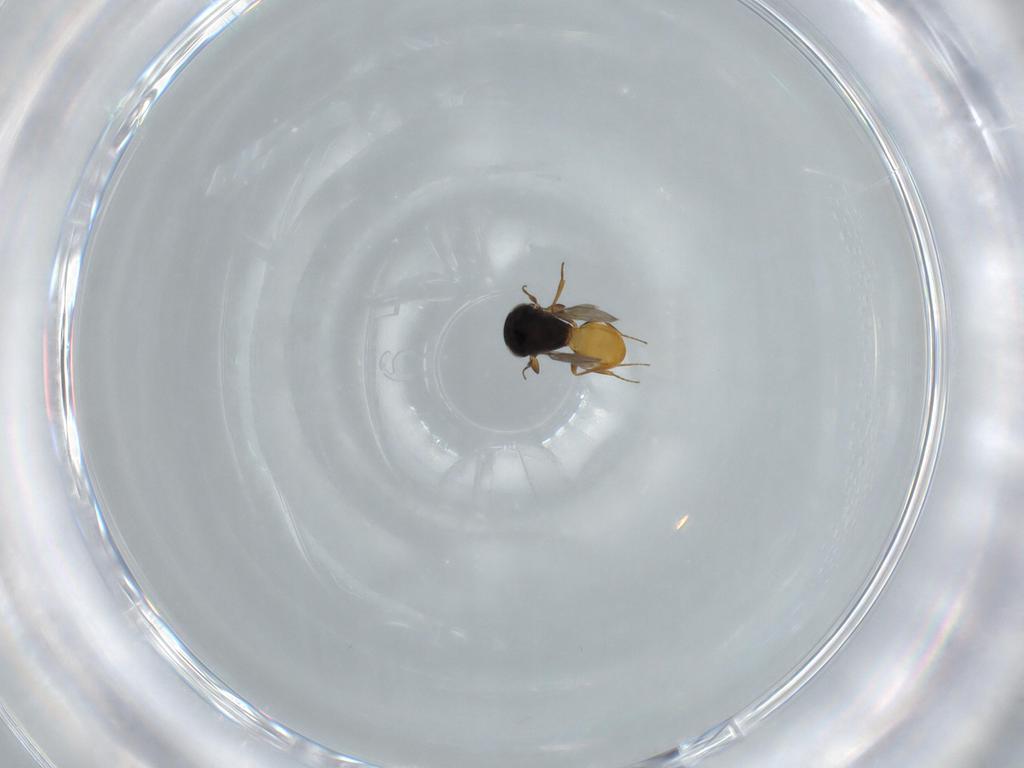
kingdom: Animalia
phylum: Arthropoda
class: Insecta
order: Hymenoptera
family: Scelionidae
